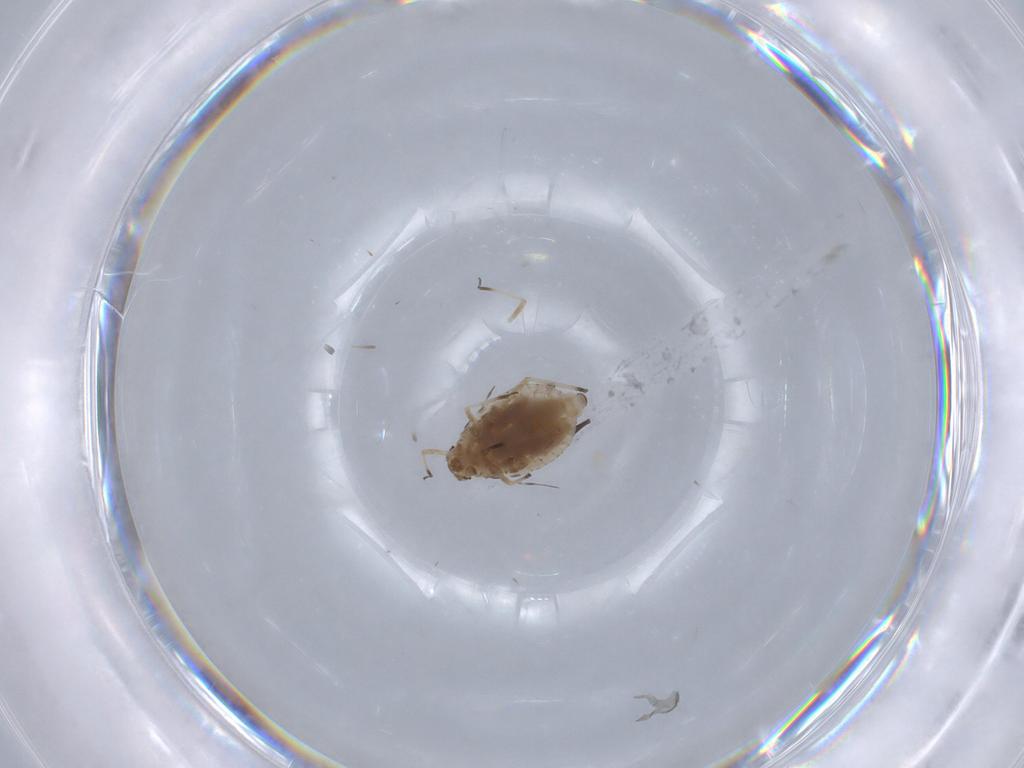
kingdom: Animalia
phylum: Arthropoda
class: Insecta
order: Hemiptera
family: Aphididae
